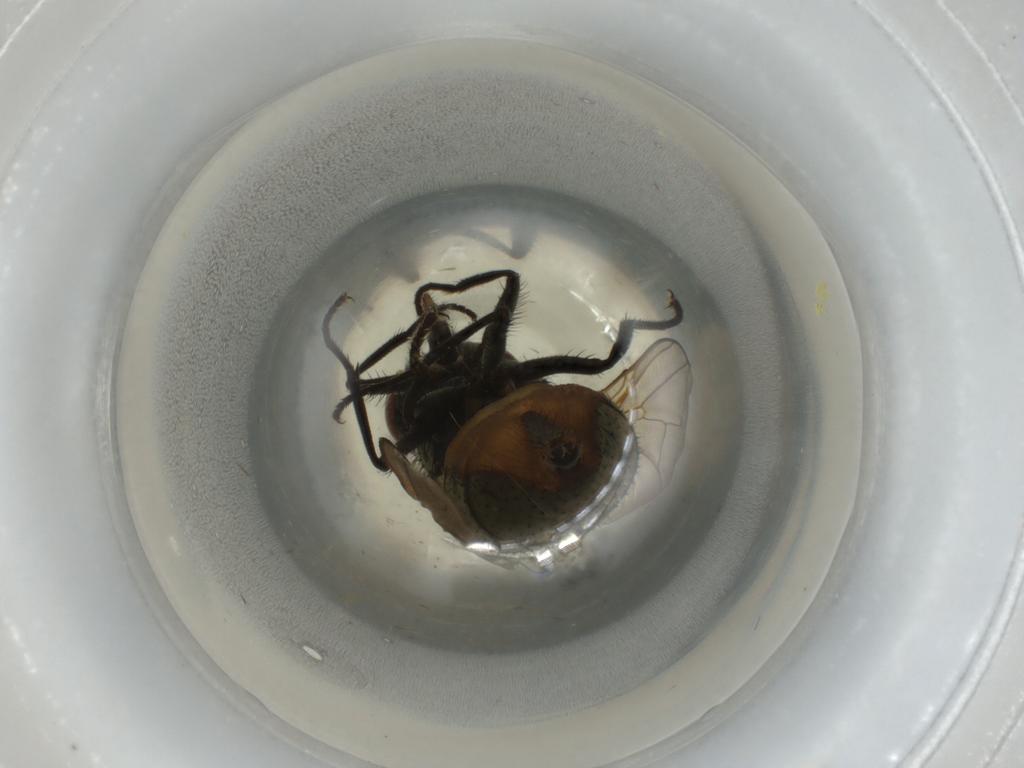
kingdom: Animalia
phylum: Arthropoda
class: Insecta
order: Diptera
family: Muscidae
